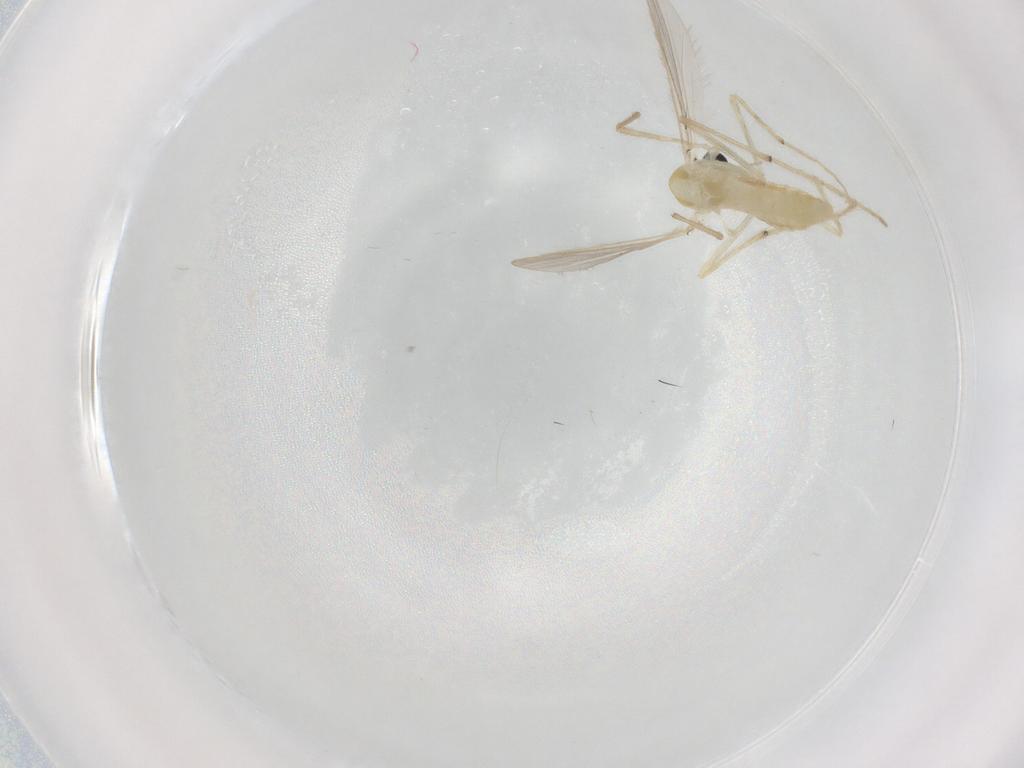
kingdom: Animalia
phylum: Arthropoda
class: Insecta
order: Diptera
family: Chironomidae
